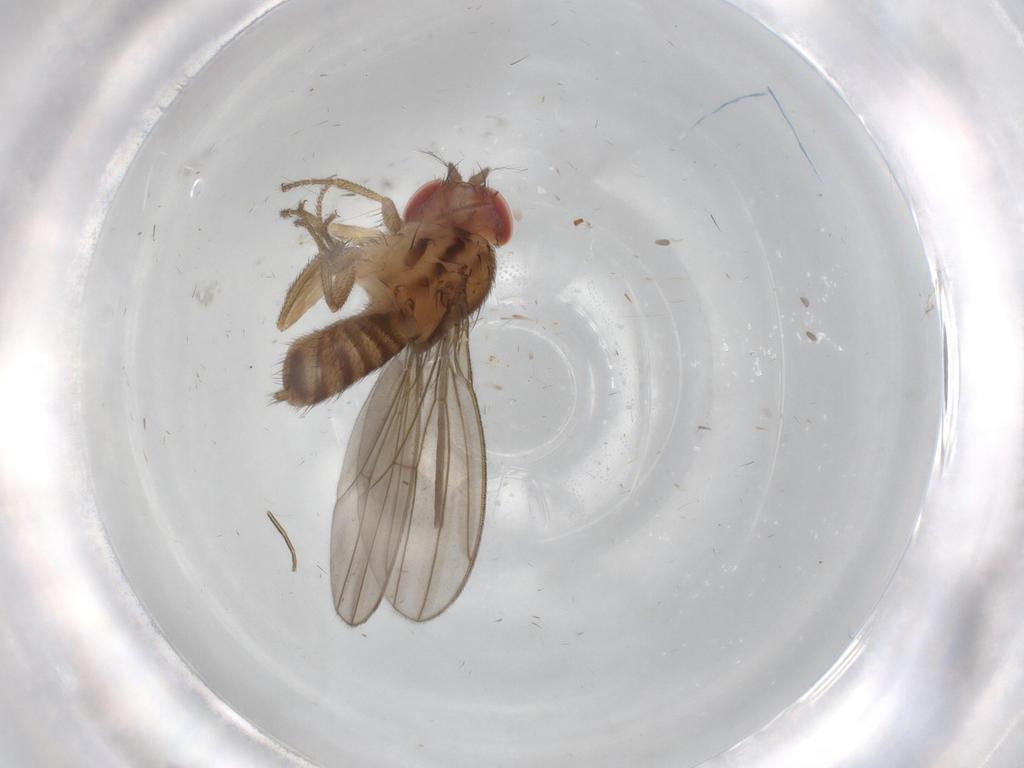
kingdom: Animalia
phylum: Arthropoda
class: Insecta
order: Diptera
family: Drosophilidae
